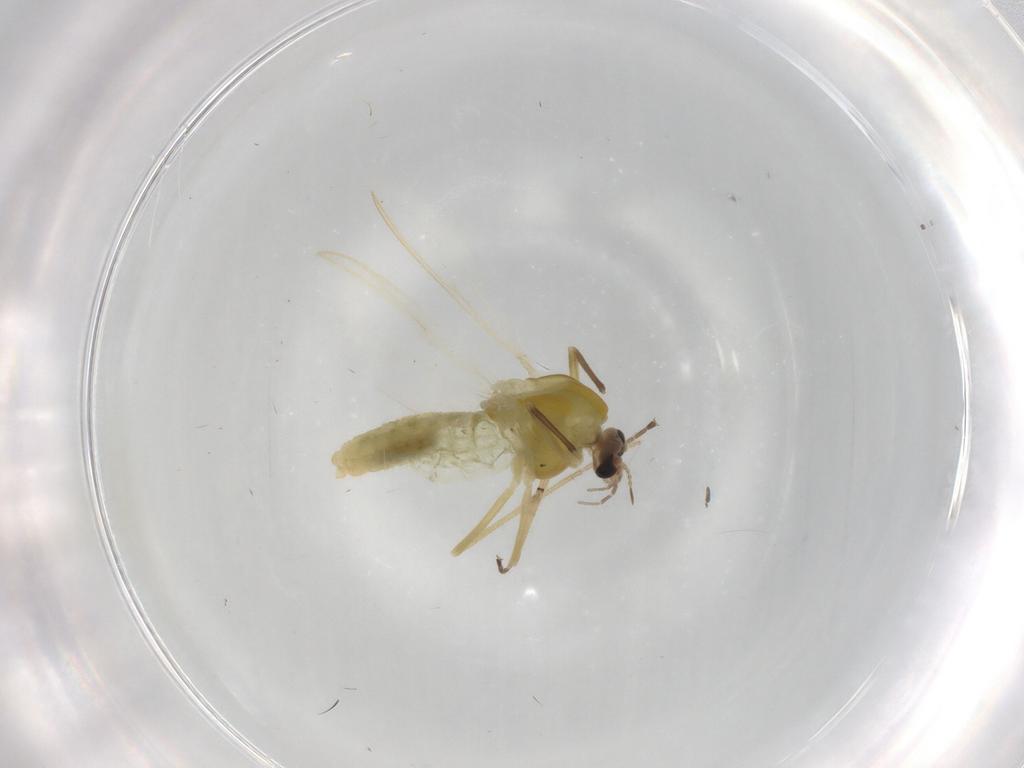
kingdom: Animalia
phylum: Arthropoda
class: Insecta
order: Diptera
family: Chironomidae
